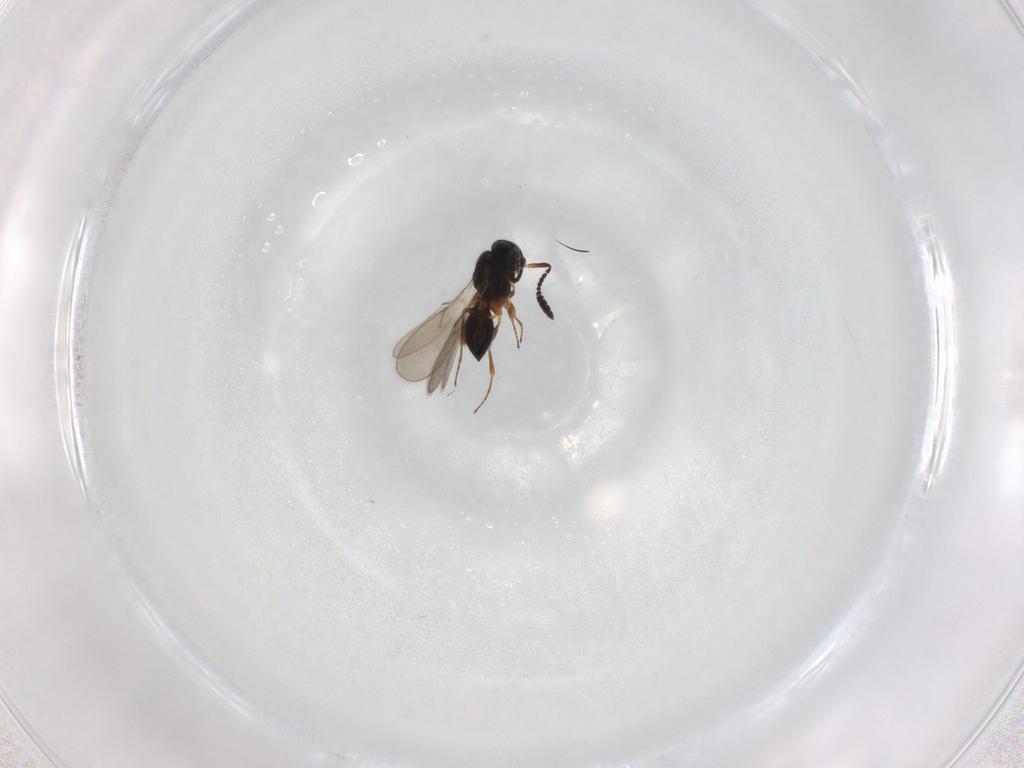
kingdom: Animalia
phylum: Arthropoda
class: Insecta
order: Hymenoptera
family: Scelionidae
